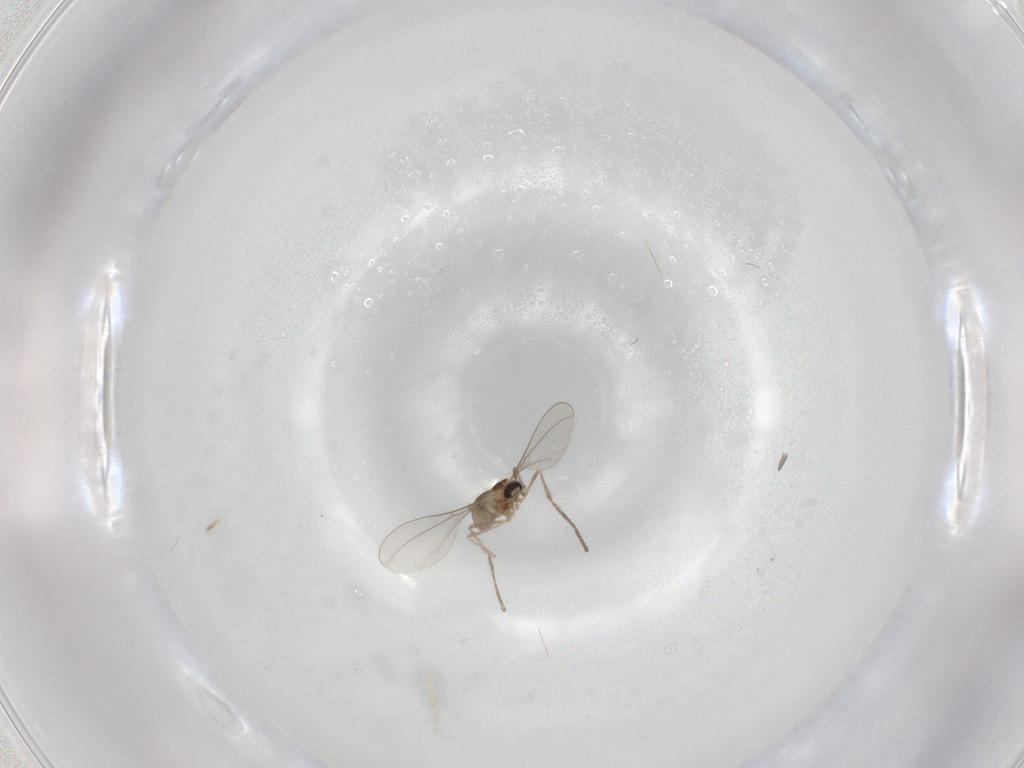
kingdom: Animalia
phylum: Arthropoda
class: Insecta
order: Diptera
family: Cecidomyiidae
